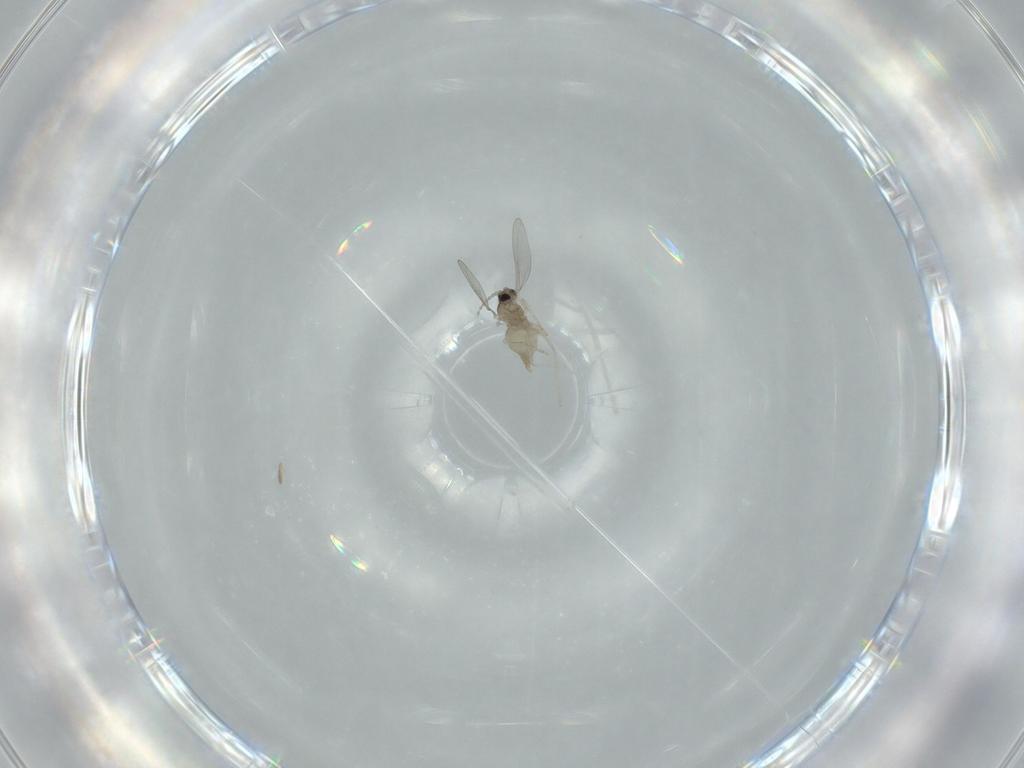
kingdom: Animalia
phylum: Arthropoda
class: Insecta
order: Diptera
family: Cecidomyiidae
